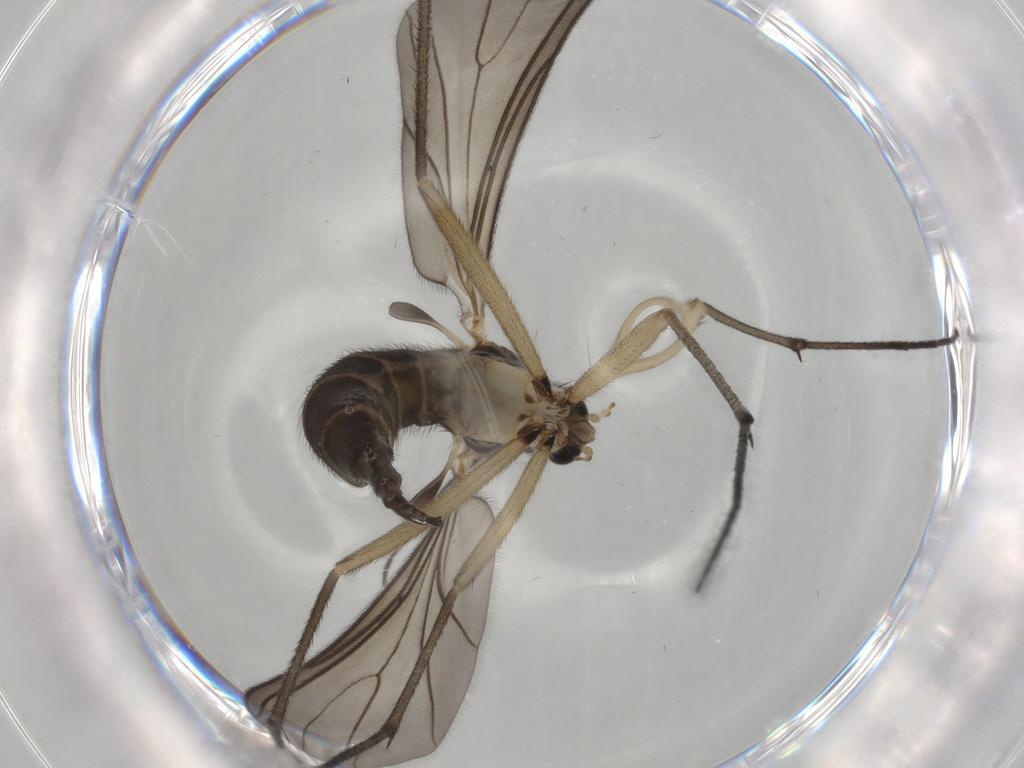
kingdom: Animalia
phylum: Arthropoda
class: Insecta
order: Diptera
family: Sciaridae
